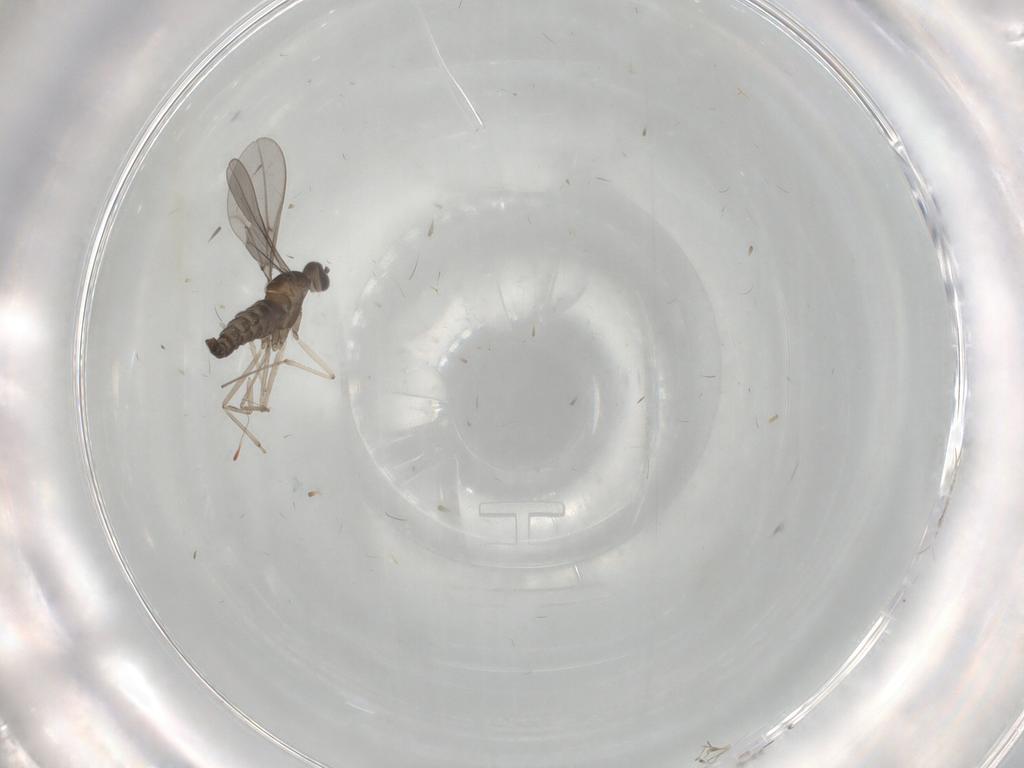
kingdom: Animalia
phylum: Arthropoda
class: Insecta
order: Diptera
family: Cecidomyiidae
